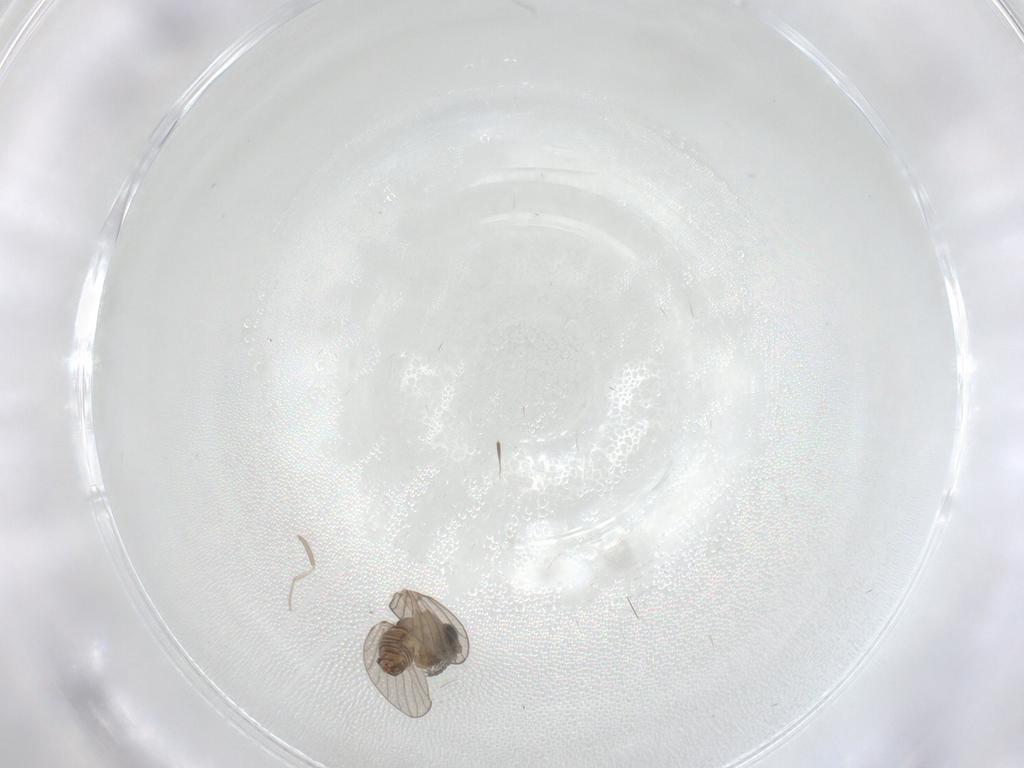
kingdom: Animalia
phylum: Arthropoda
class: Insecta
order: Diptera
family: Cecidomyiidae
